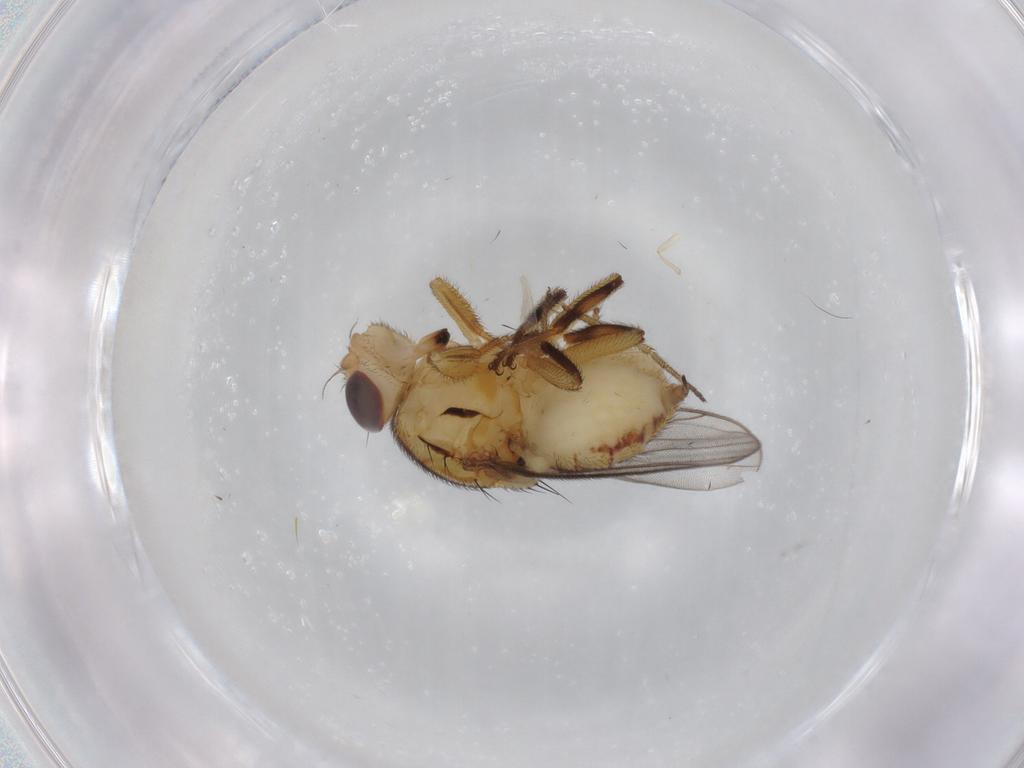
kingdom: Animalia
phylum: Arthropoda
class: Insecta
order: Diptera
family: Chloropidae
